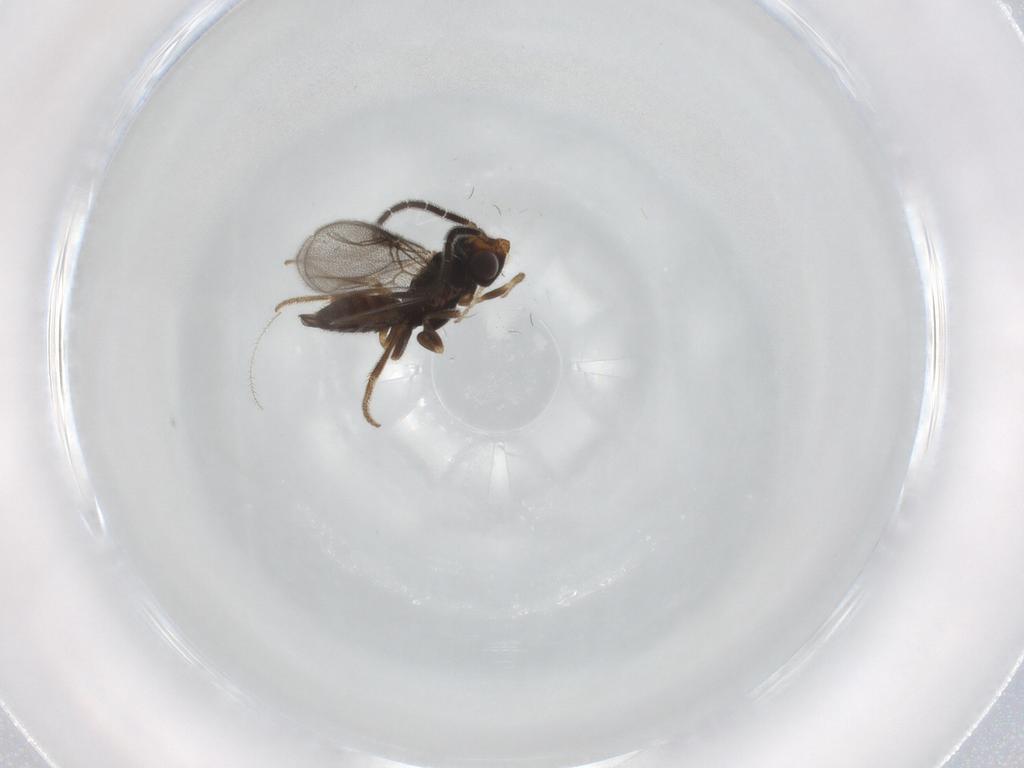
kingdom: Animalia
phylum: Arthropoda
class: Insecta
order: Hymenoptera
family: Dryinidae
